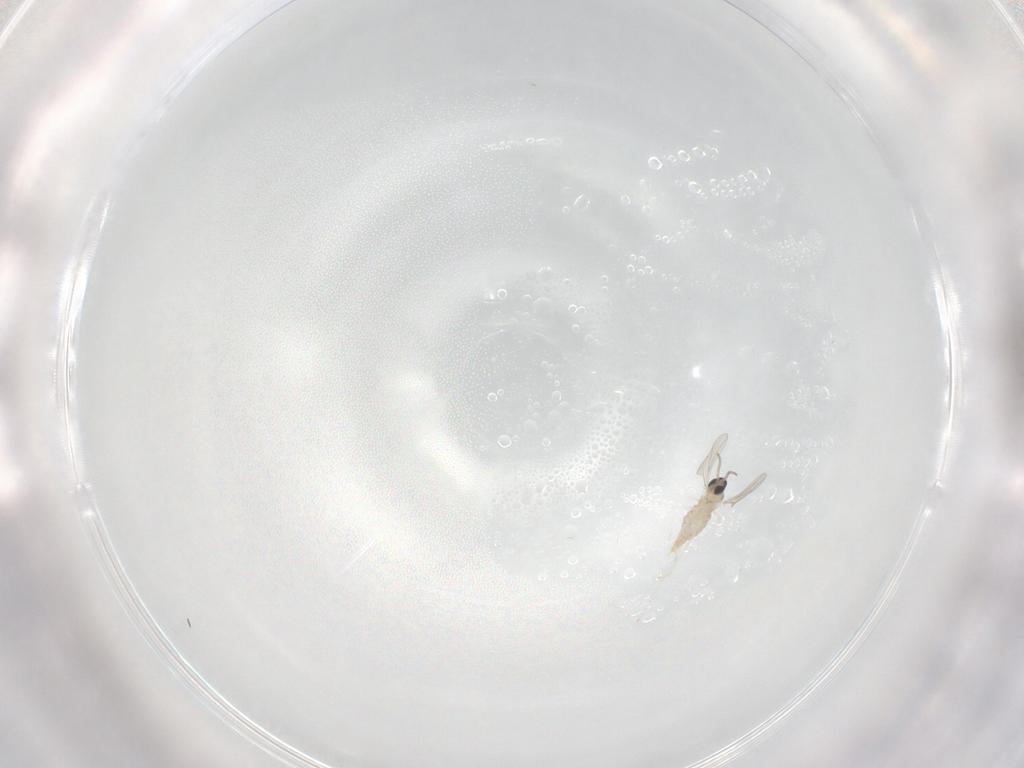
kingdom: Animalia
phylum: Arthropoda
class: Insecta
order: Diptera
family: Cecidomyiidae
